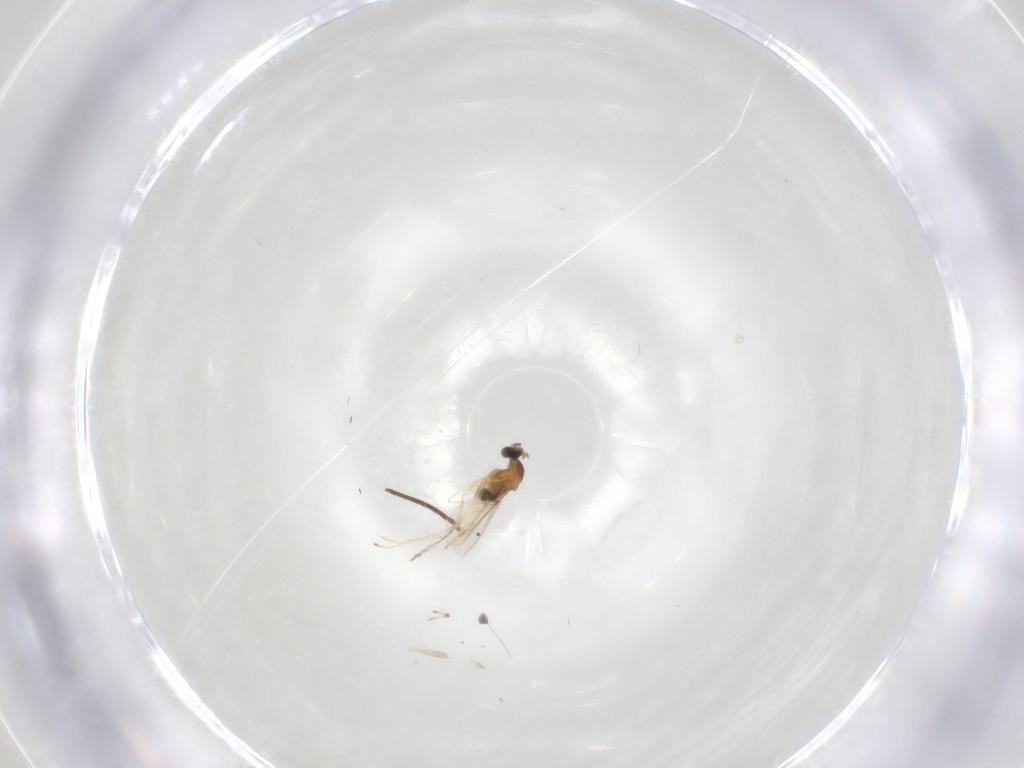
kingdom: Animalia
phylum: Arthropoda
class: Insecta
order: Diptera
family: Cecidomyiidae
